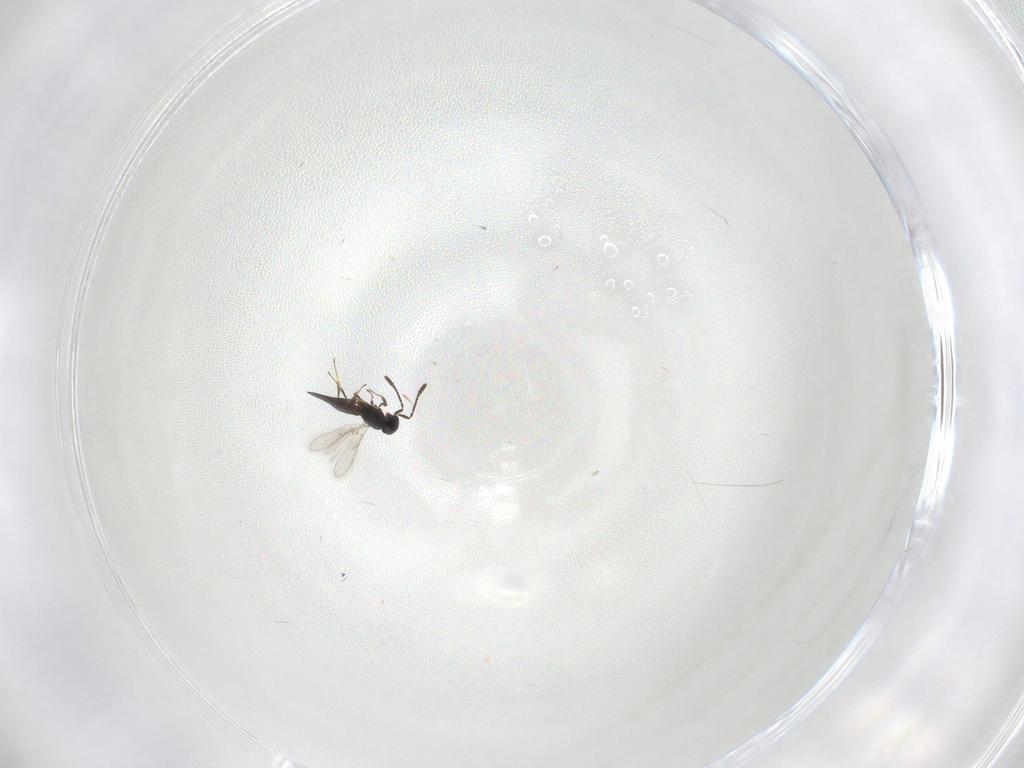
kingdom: Animalia
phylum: Arthropoda
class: Insecta
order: Hymenoptera
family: Scelionidae
